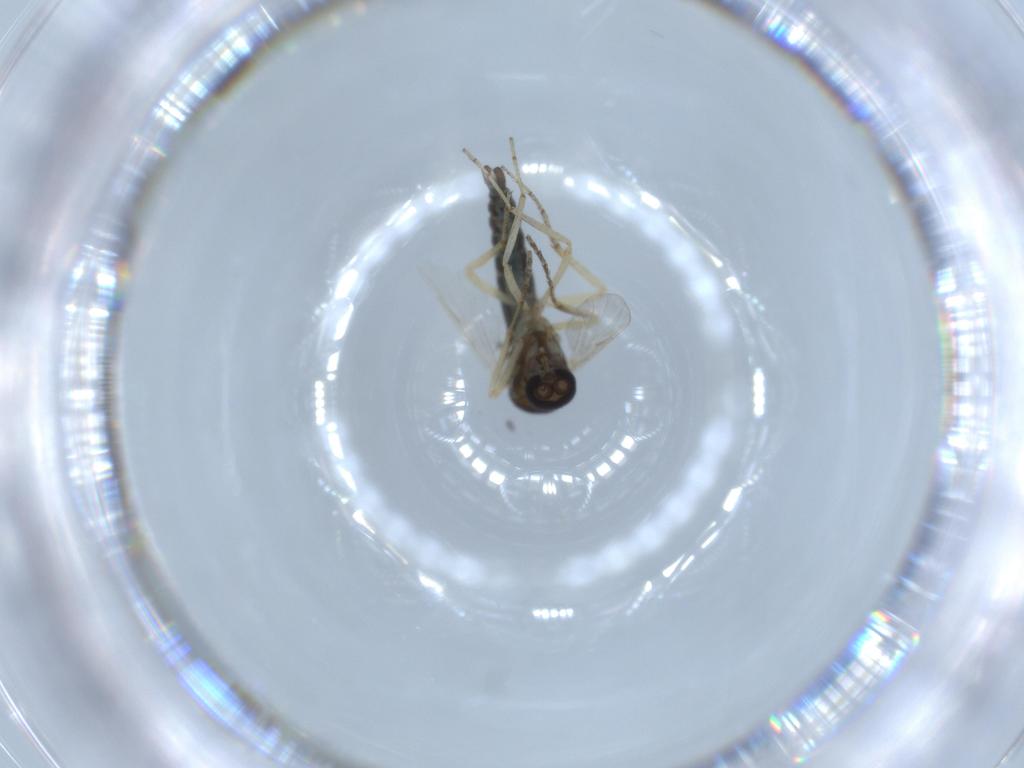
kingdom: Animalia
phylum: Arthropoda
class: Insecta
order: Diptera
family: Ceratopogonidae
